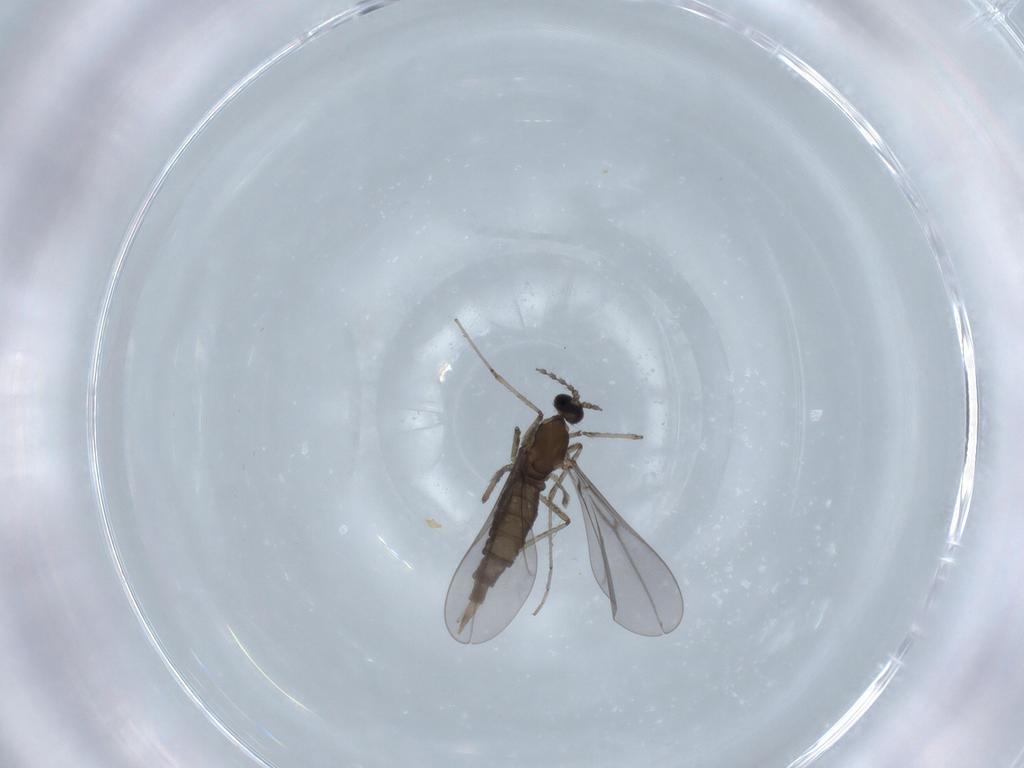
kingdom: Animalia
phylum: Arthropoda
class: Insecta
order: Diptera
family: Cecidomyiidae
